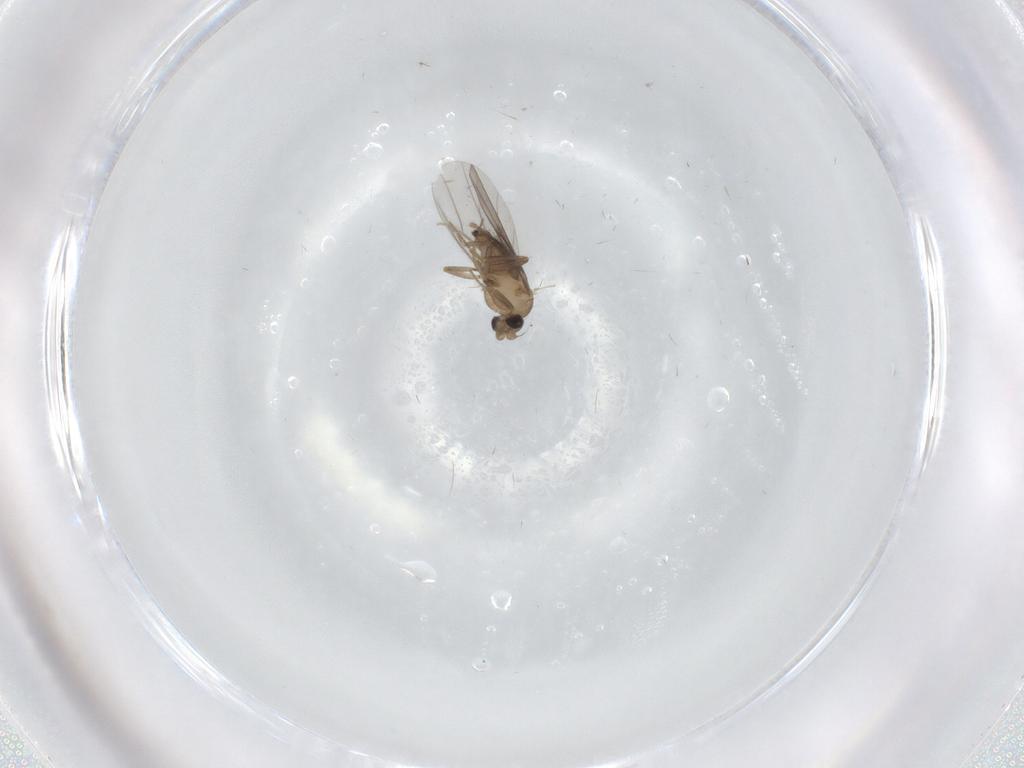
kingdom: Animalia
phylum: Arthropoda
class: Insecta
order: Diptera
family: Limoniidae
